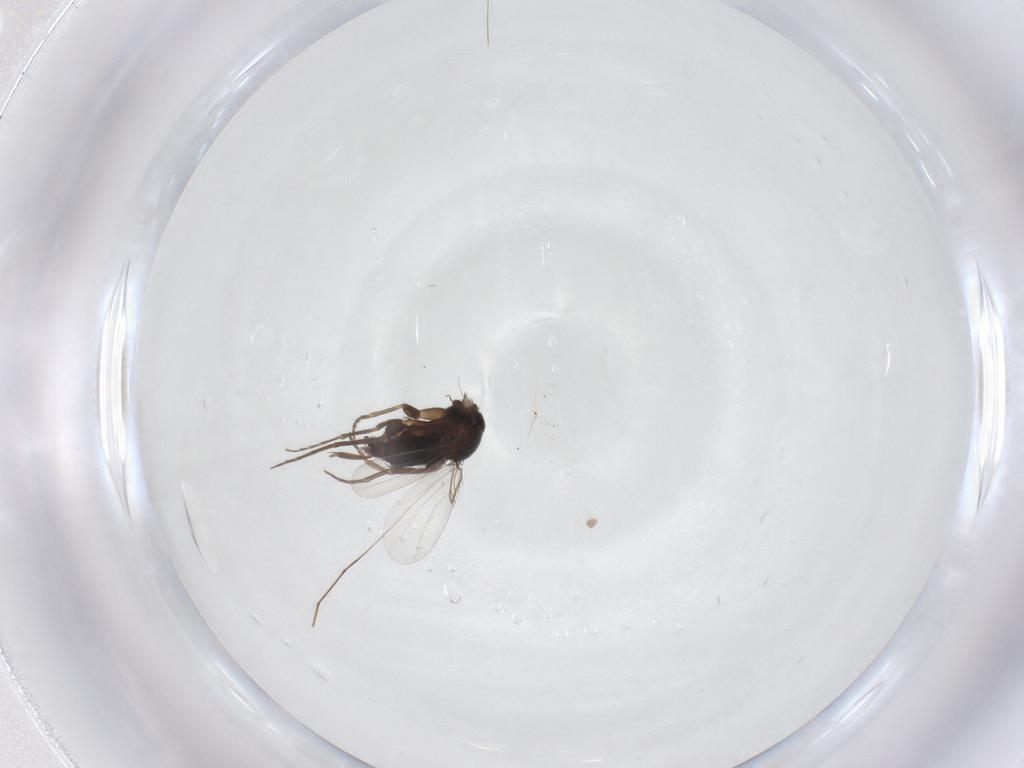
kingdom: Animalia
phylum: Arthropoda
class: Insecta
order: Diptera
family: Phoridae
